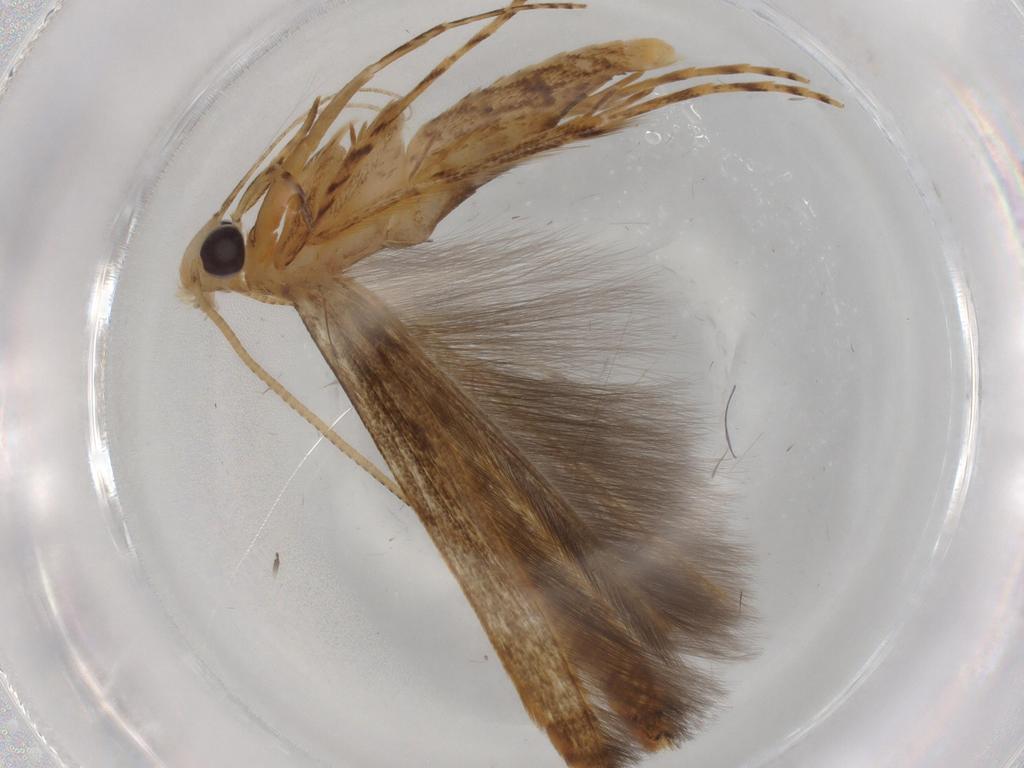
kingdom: Animalia
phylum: Arthropoda
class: Insecta
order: Lepidoptera
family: Batrachedridae
